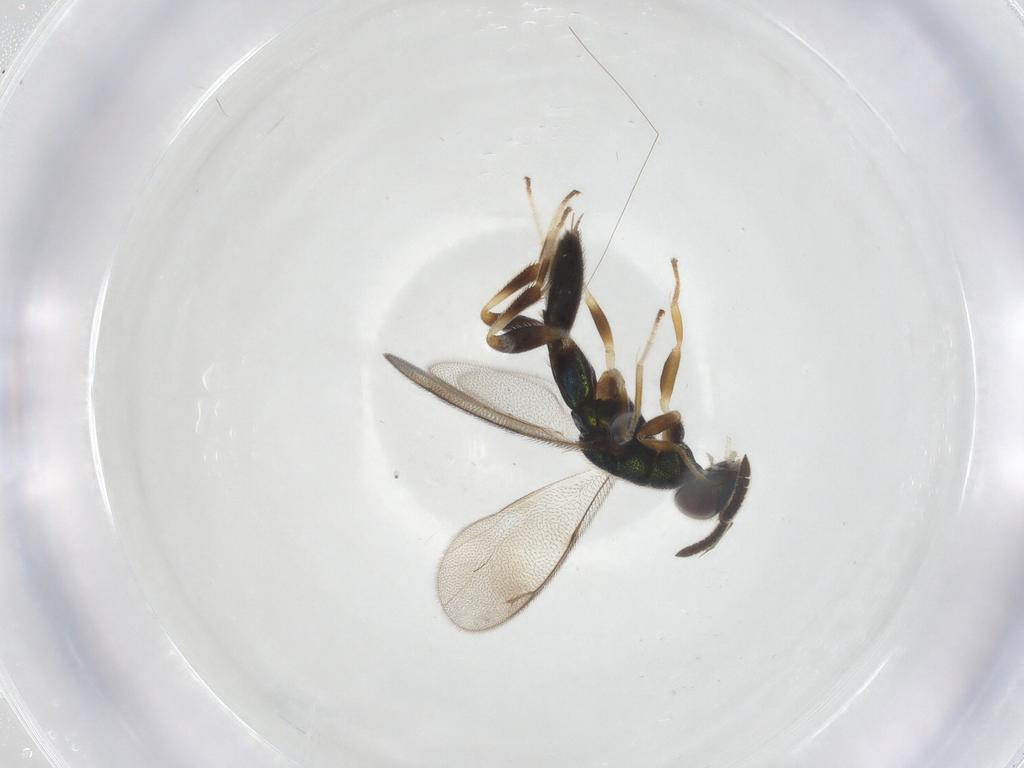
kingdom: Animalia
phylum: Arthropoda
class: Insecta
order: Hymenoptera
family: Cleonyminae
